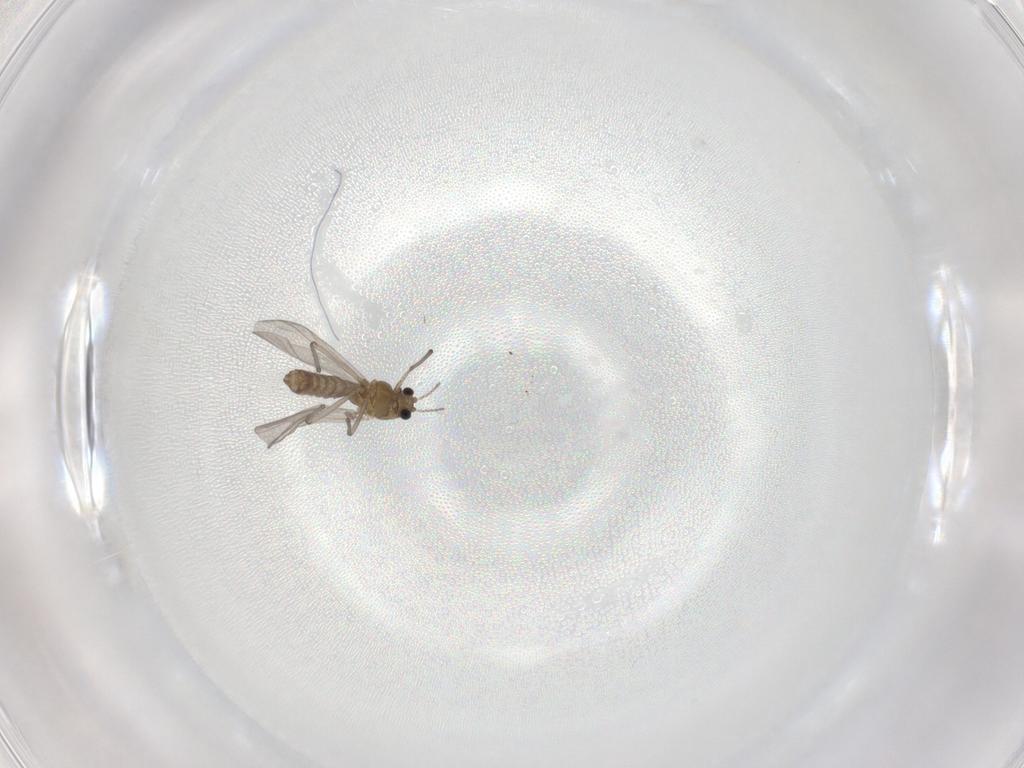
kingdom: Animalia
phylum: Arthropoda
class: Insecta
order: Diptera
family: Chironomidae
